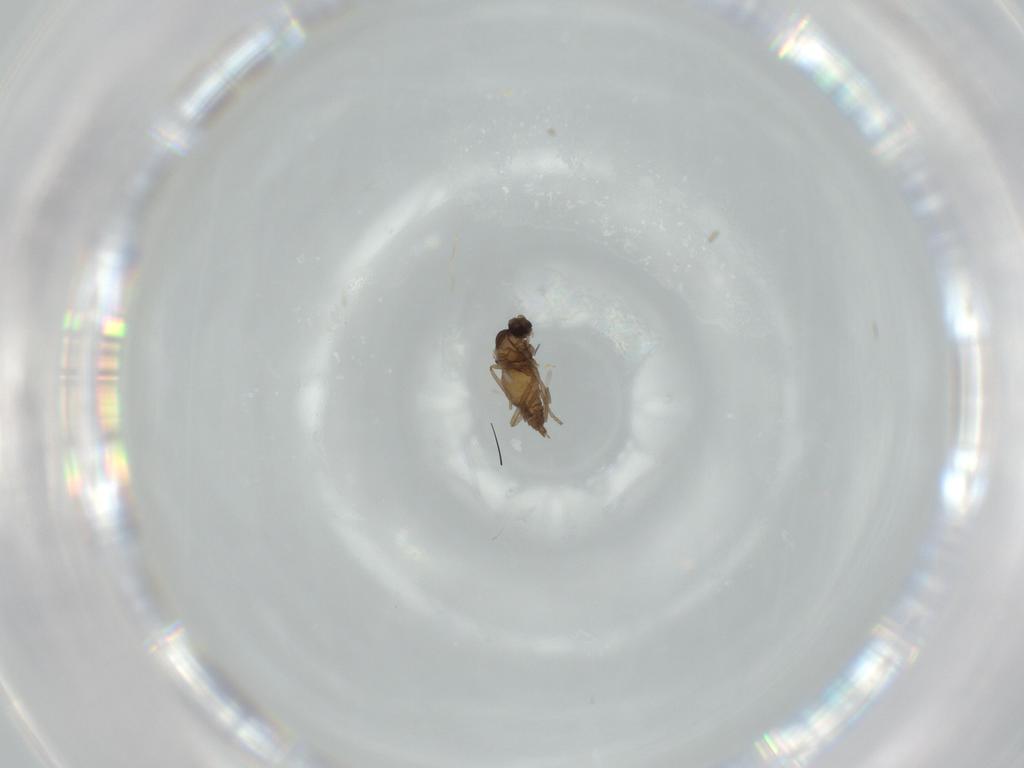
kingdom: Animalia
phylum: Arthropoda
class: Insecta
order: Diptera
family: Cecidomyiidae
